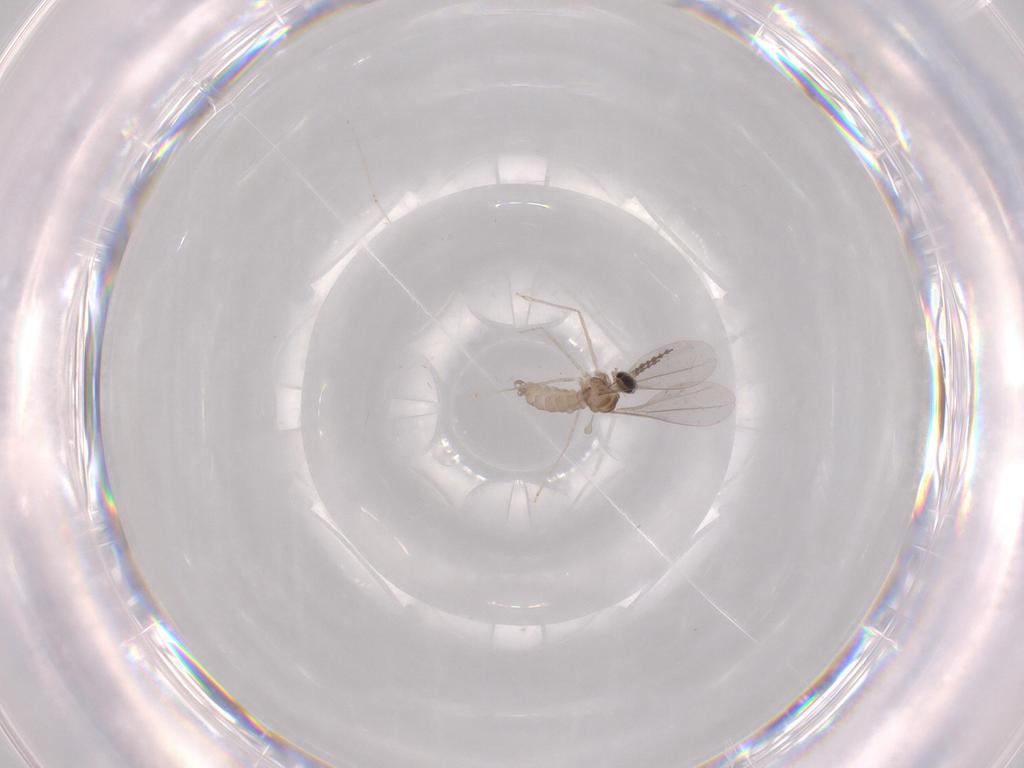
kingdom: Animalia
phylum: Arthropoda
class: Insecta
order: Diptera
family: Cecidomyiidae
